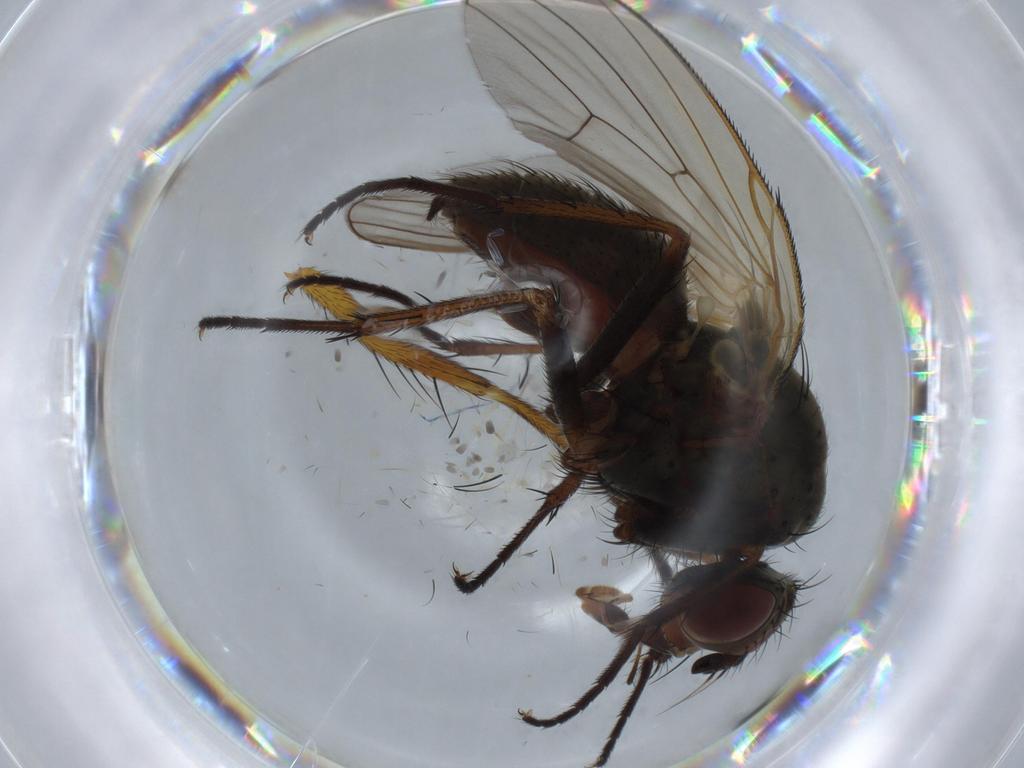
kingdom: Animalia
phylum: Arthropoda
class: Insecta
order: Diptera
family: Anthomyiidae
